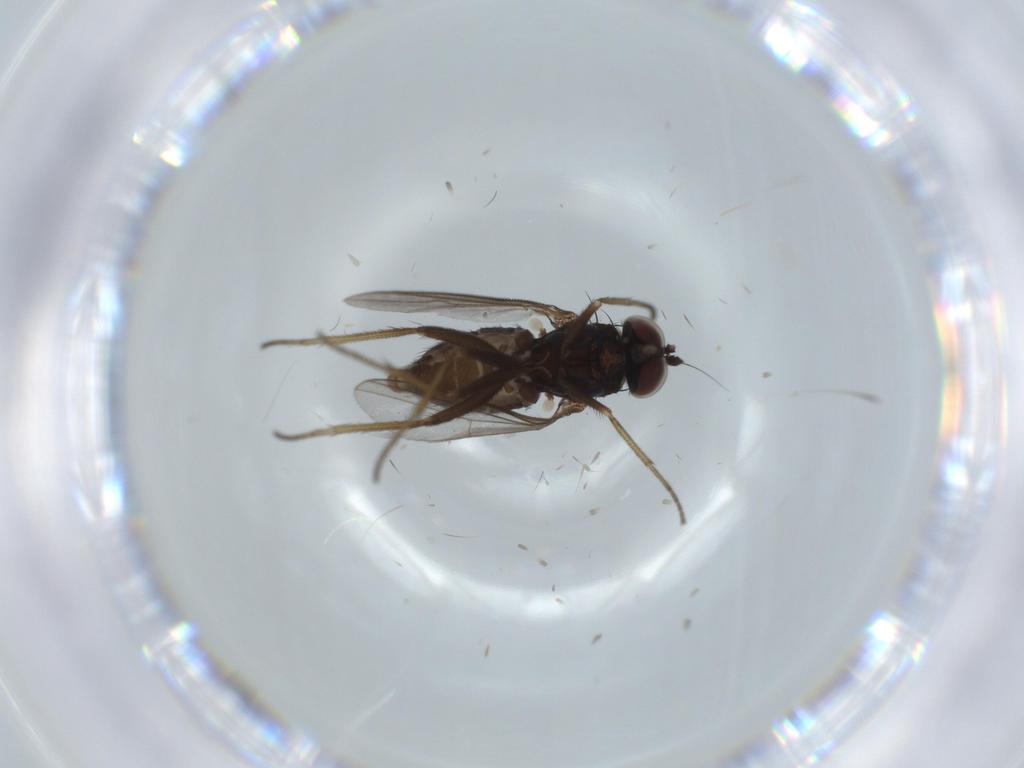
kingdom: Animalia
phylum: Arthropoda
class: Insecta
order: Diptera
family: Dolichopodidae
